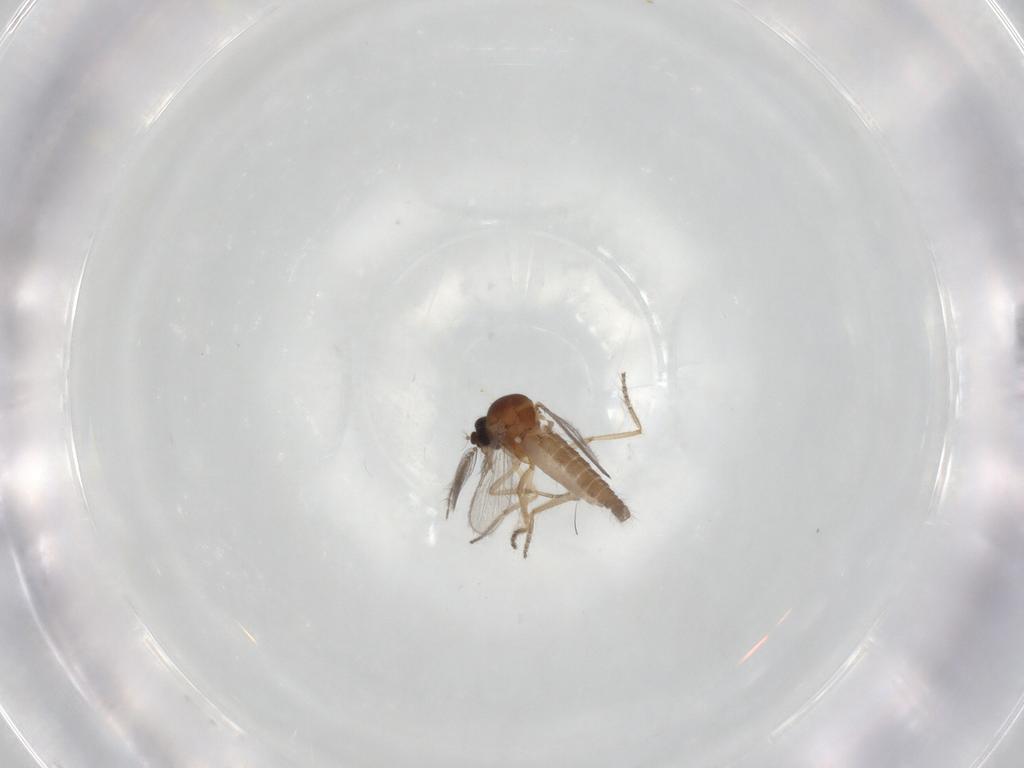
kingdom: Animalia
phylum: Arthropoda
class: Insecta
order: Diptera
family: Ceratopogonidae
